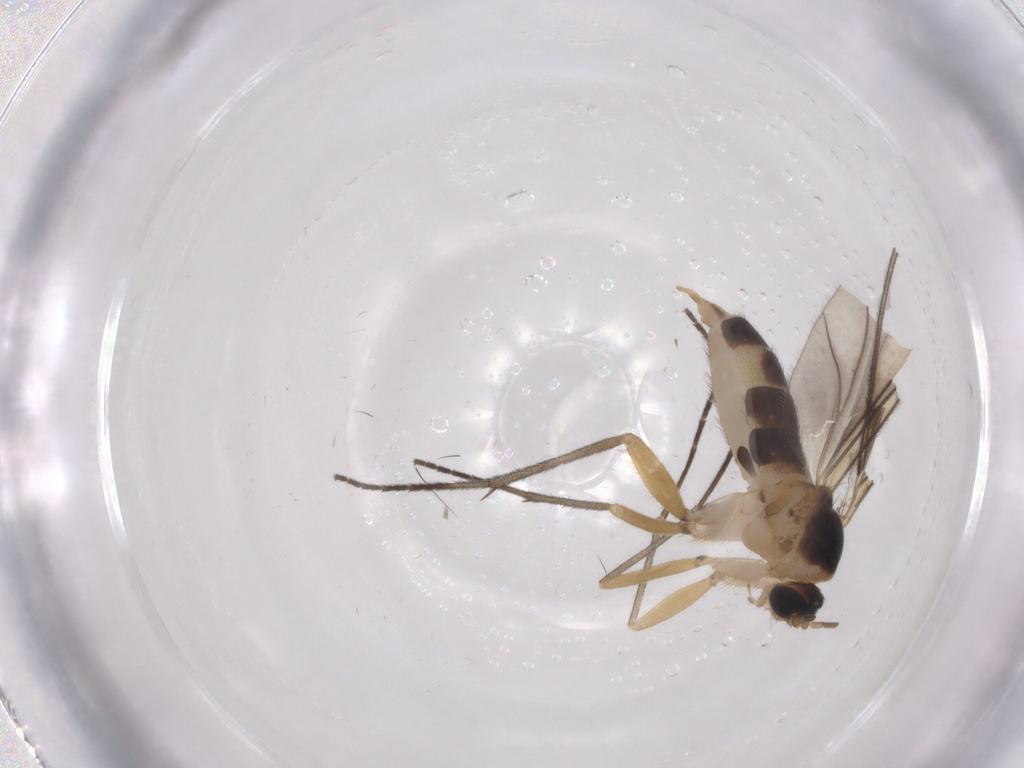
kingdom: Animalia
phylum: Arthropoda
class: Insecta
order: Diptera
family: Sciaridae
